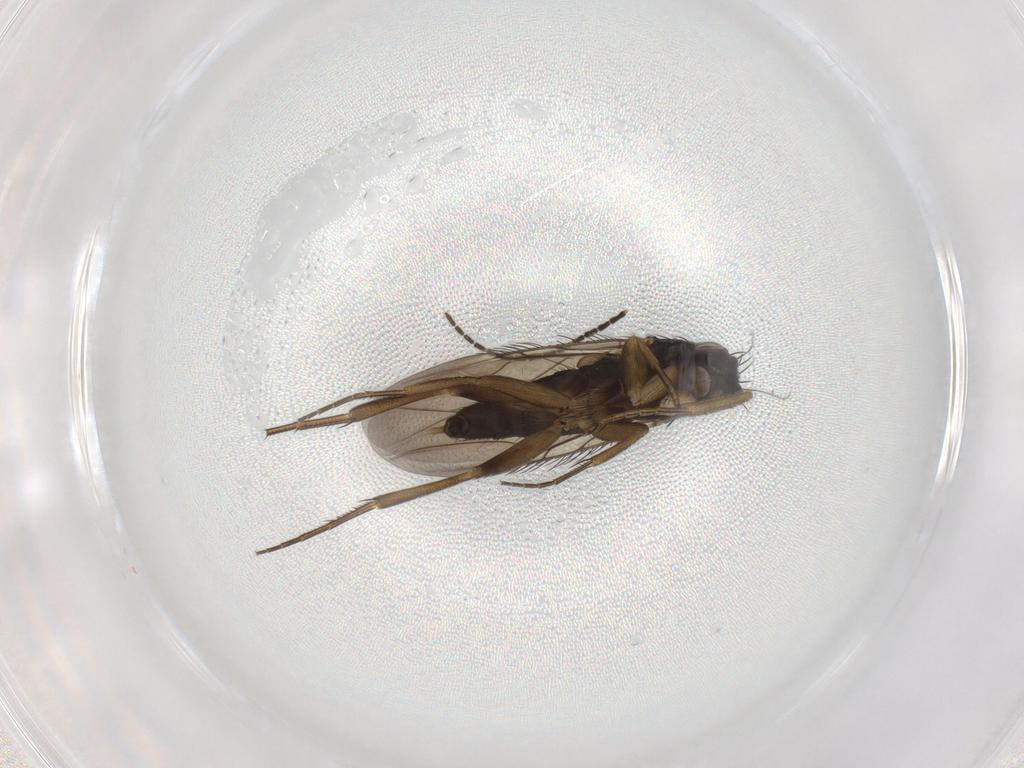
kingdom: Animalia
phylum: Arthropoda
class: Insecta
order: Diptera
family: Phoridae
